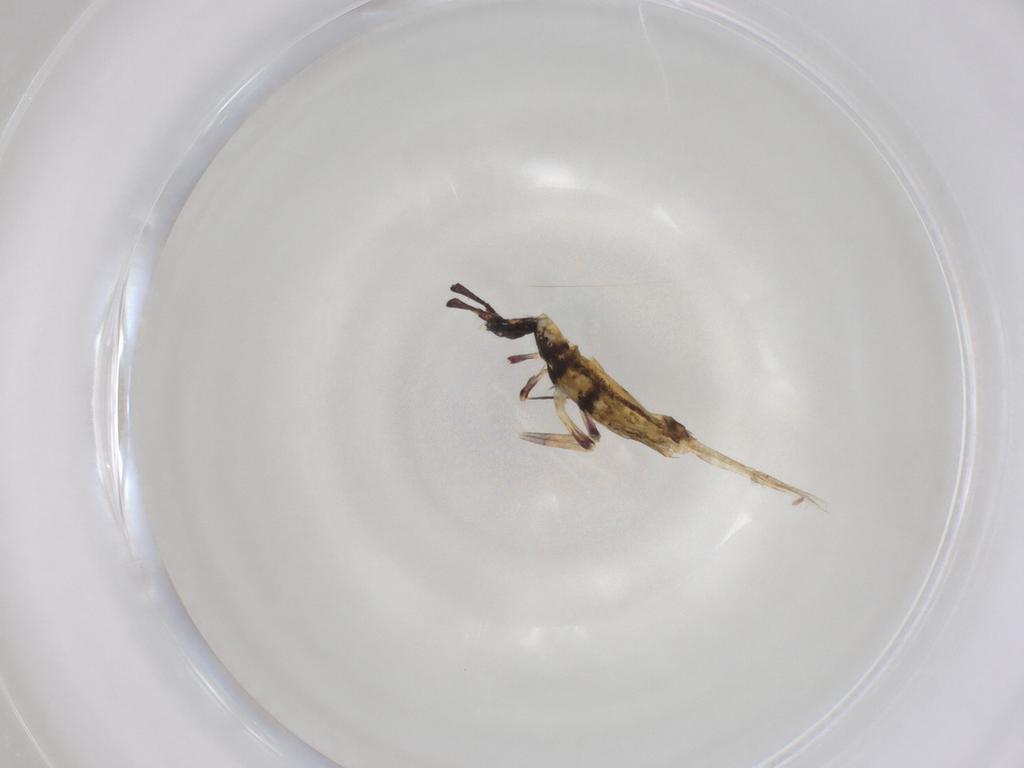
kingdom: Animalia
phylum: Arthropoda
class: Collembola
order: Entomobryomorpha
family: Entomobryidae
